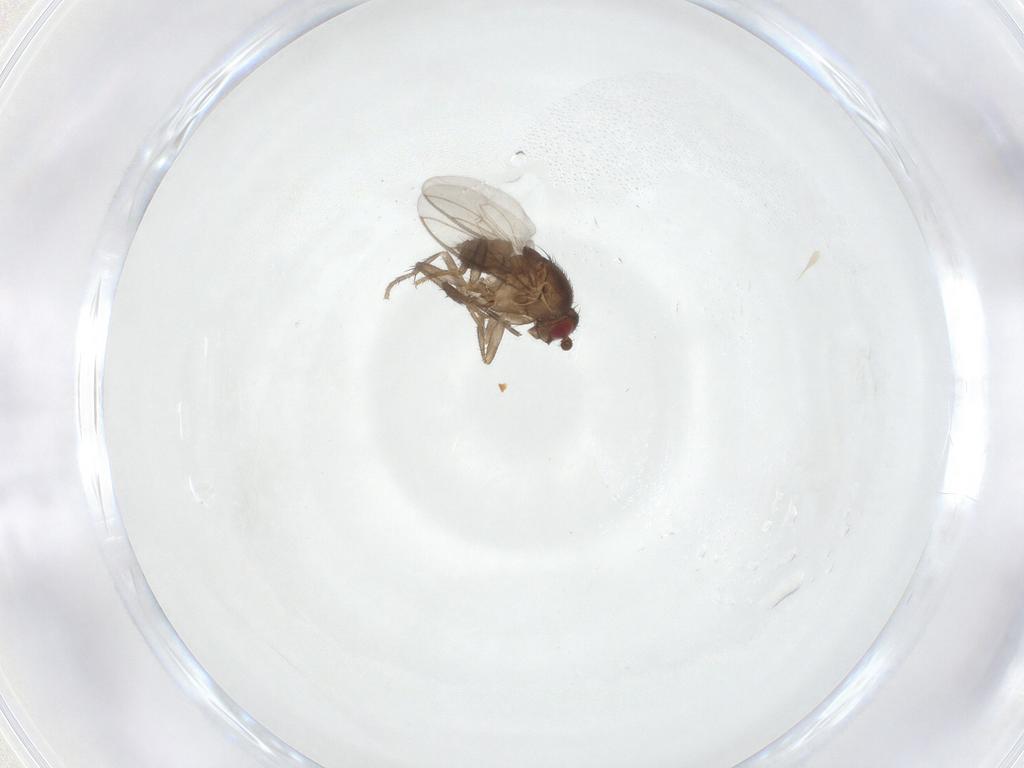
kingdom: Animalia
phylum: Arthropoda
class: Insecta
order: Diptera
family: Sphaeroceridae
